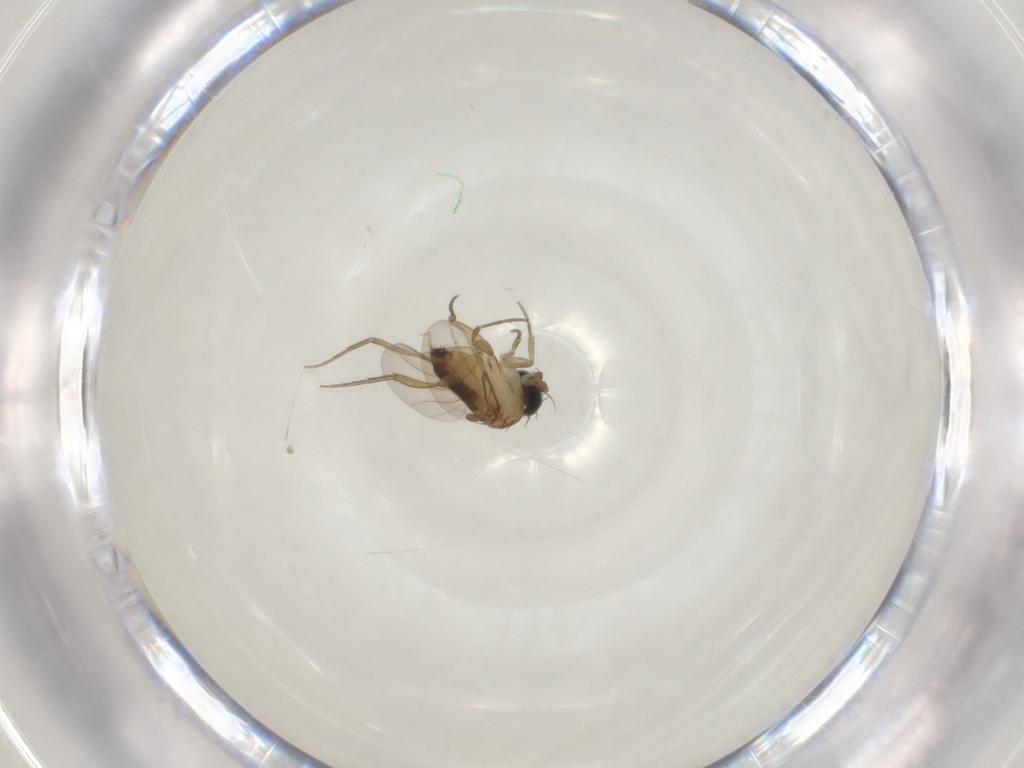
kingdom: Animalia
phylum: Arthropoda
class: Insecta
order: Diptera
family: Phoridae
